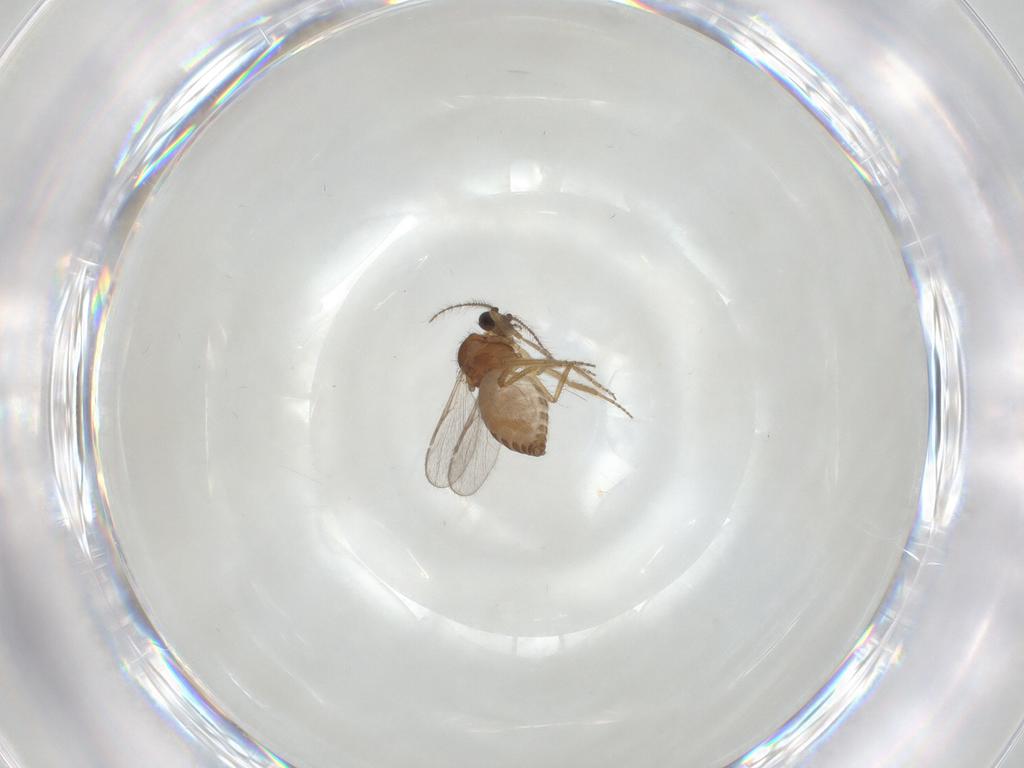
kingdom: Animalia
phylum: Arthropoda
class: Insecta
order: Diptera
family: Ceratopogonidae
